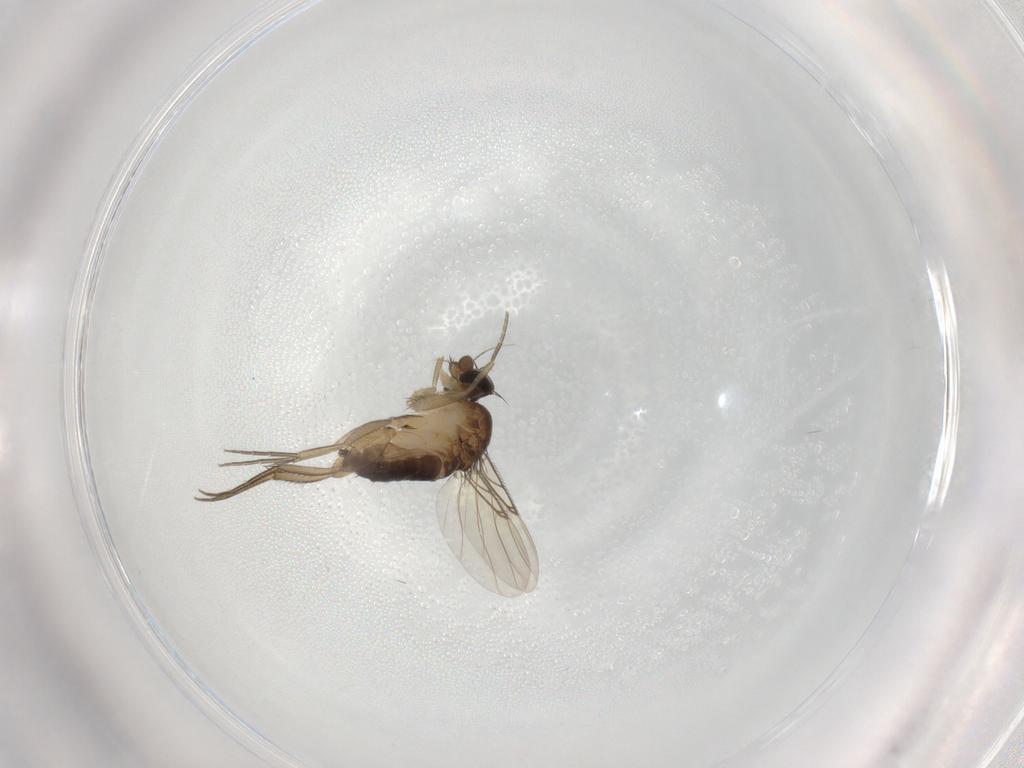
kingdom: Animalia
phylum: Arthropoda
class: Insecta
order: Diptera
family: Phoridae
